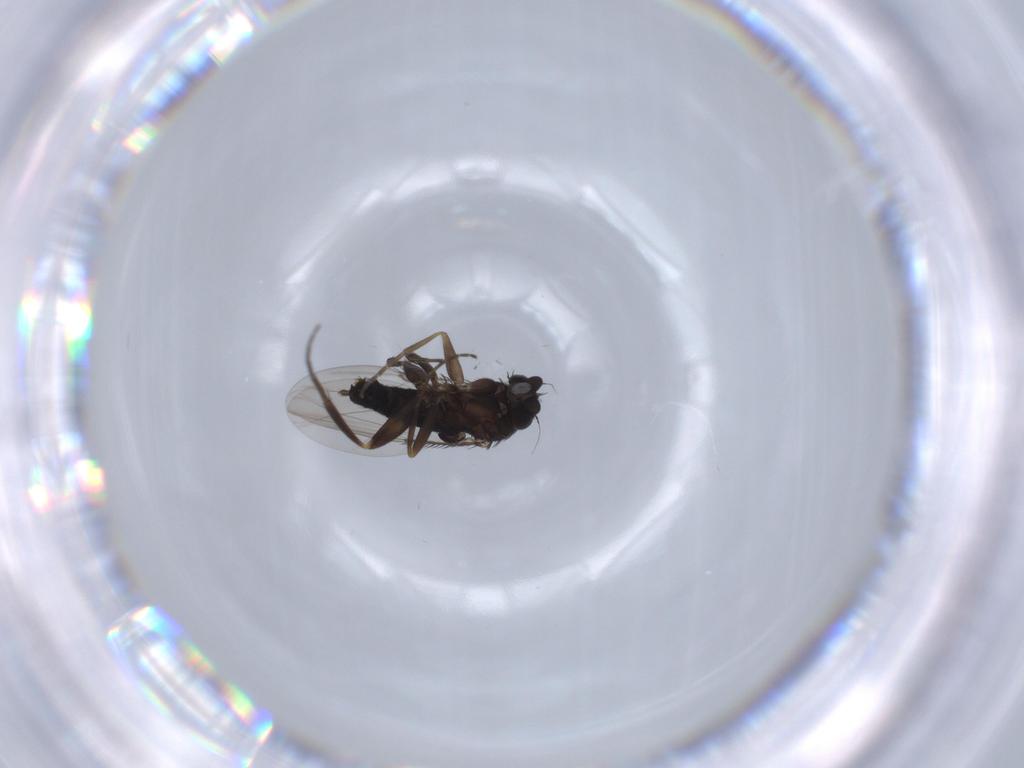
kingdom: Animalia
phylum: Arthropoda
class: Insecta
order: Diptera
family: Phoridae
